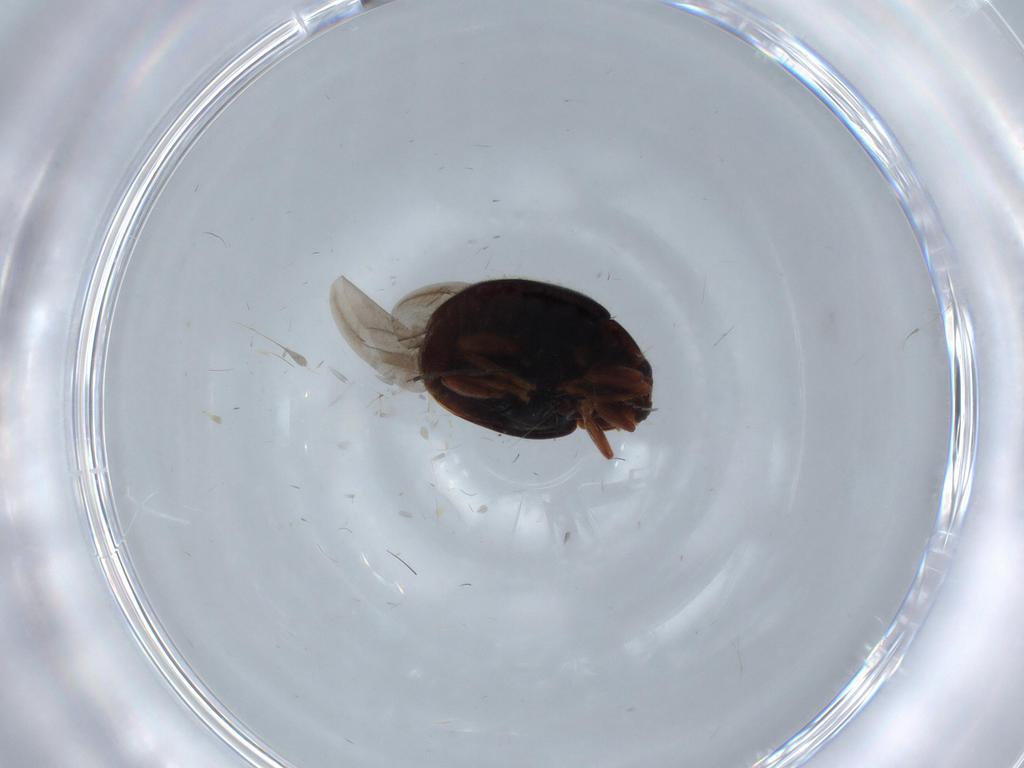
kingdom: Animalia
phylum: Arthropoda
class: Insecta
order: Coleoptera
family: Coccinellidae
